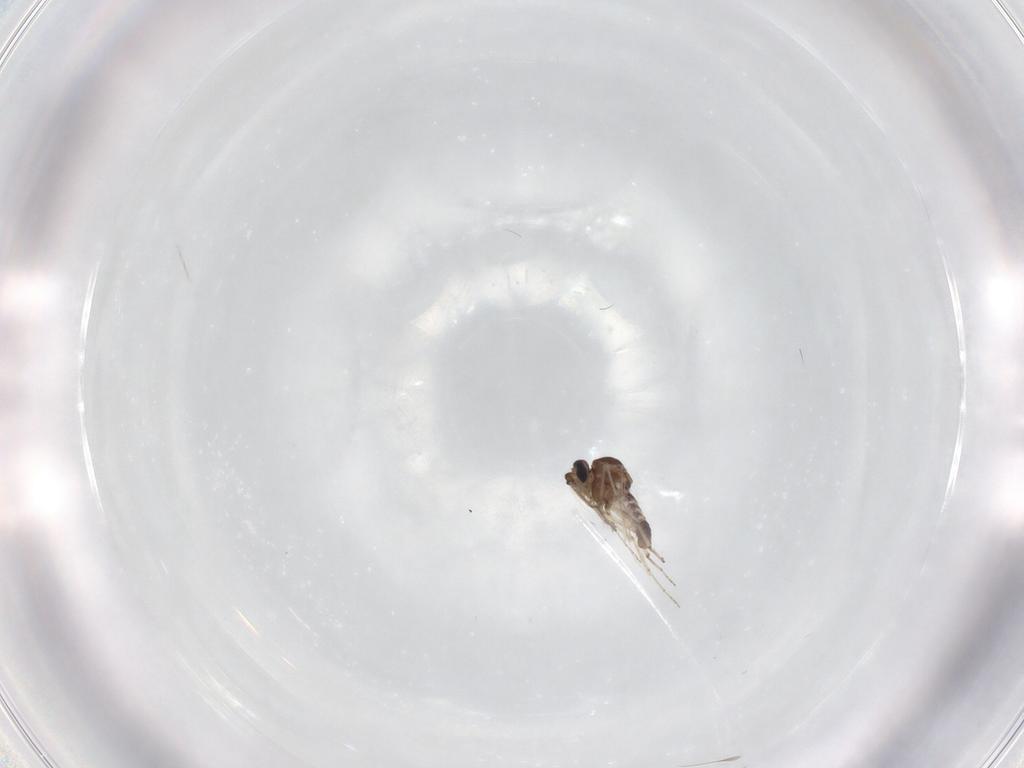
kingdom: Animalia
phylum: Arthropoda
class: Insecta
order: Diptera
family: Ceratopogonidae
